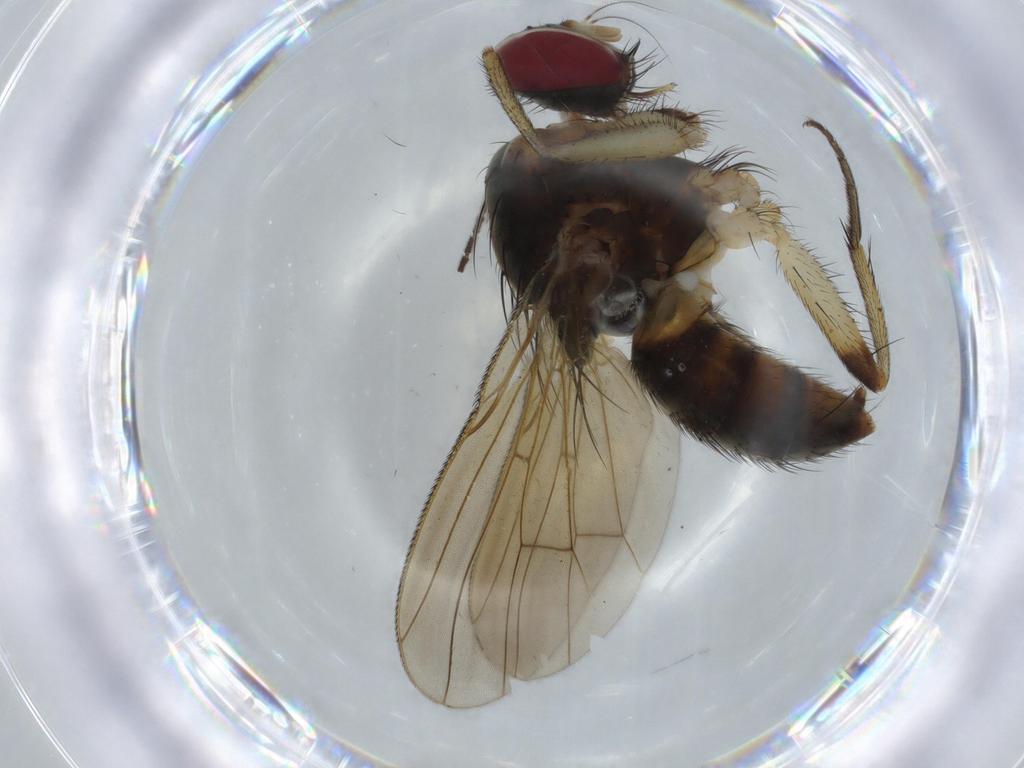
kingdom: Animalia
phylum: Arthropoda
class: Insecta
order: Diptera
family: Muscidae
